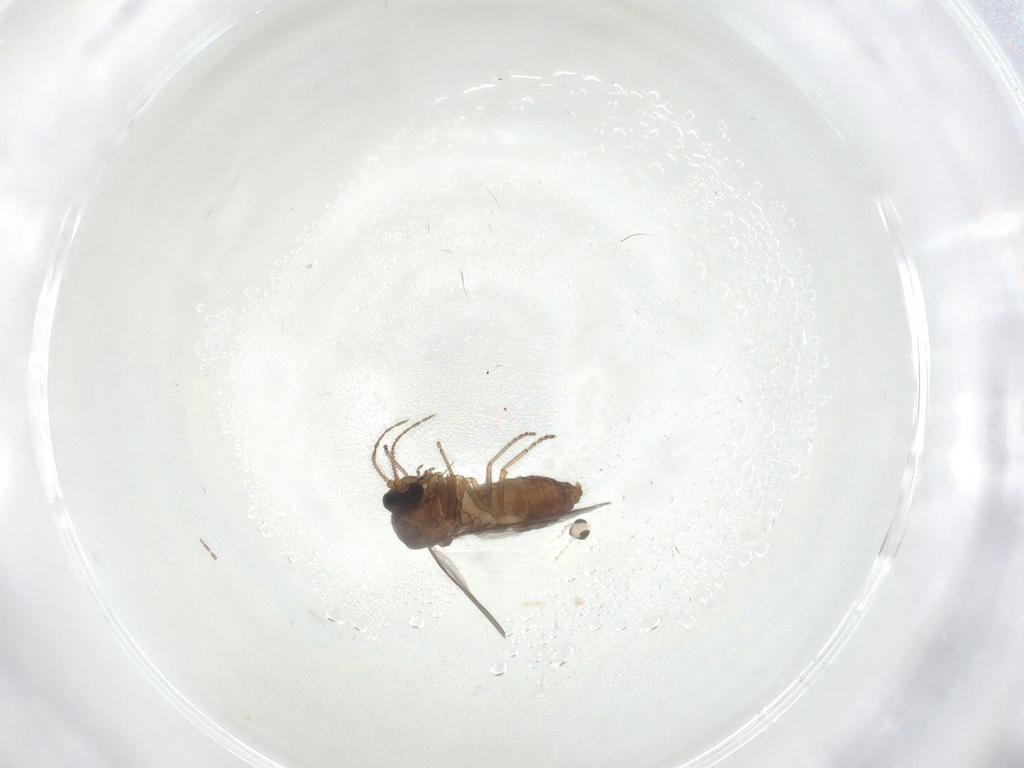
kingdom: Animalia
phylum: Arthropoda
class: Insecta
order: Diptera
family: Ceratopogonidae
